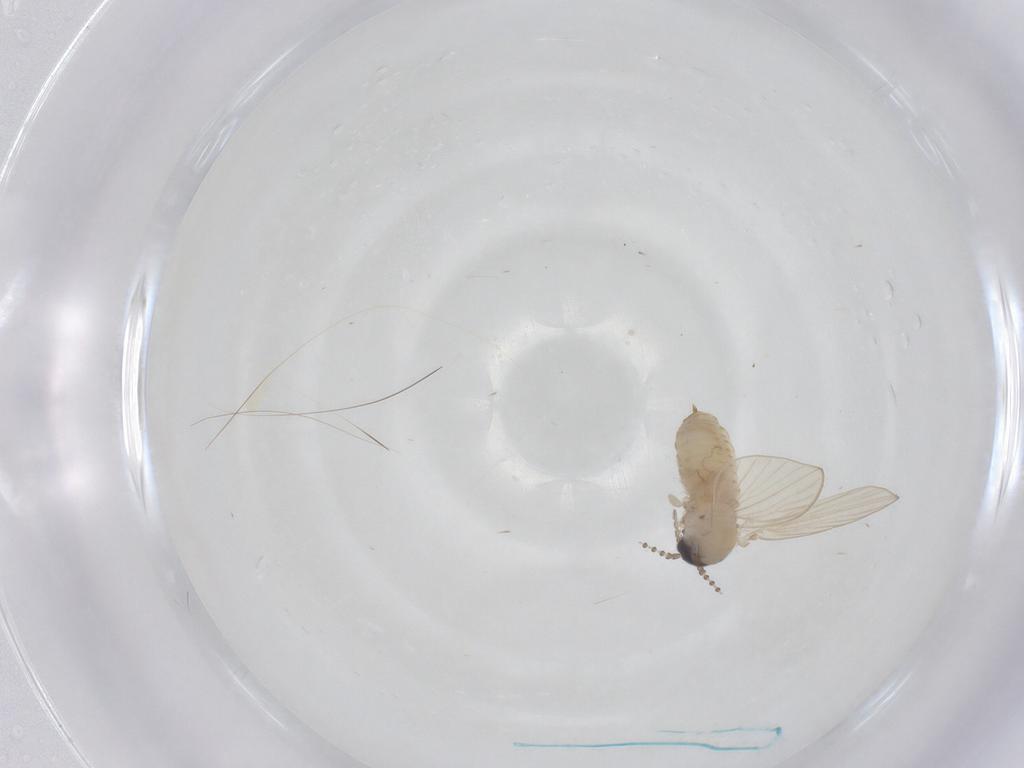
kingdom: Animalia
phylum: Arthropoda
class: Insecta
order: Diptera
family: Psychodidae
